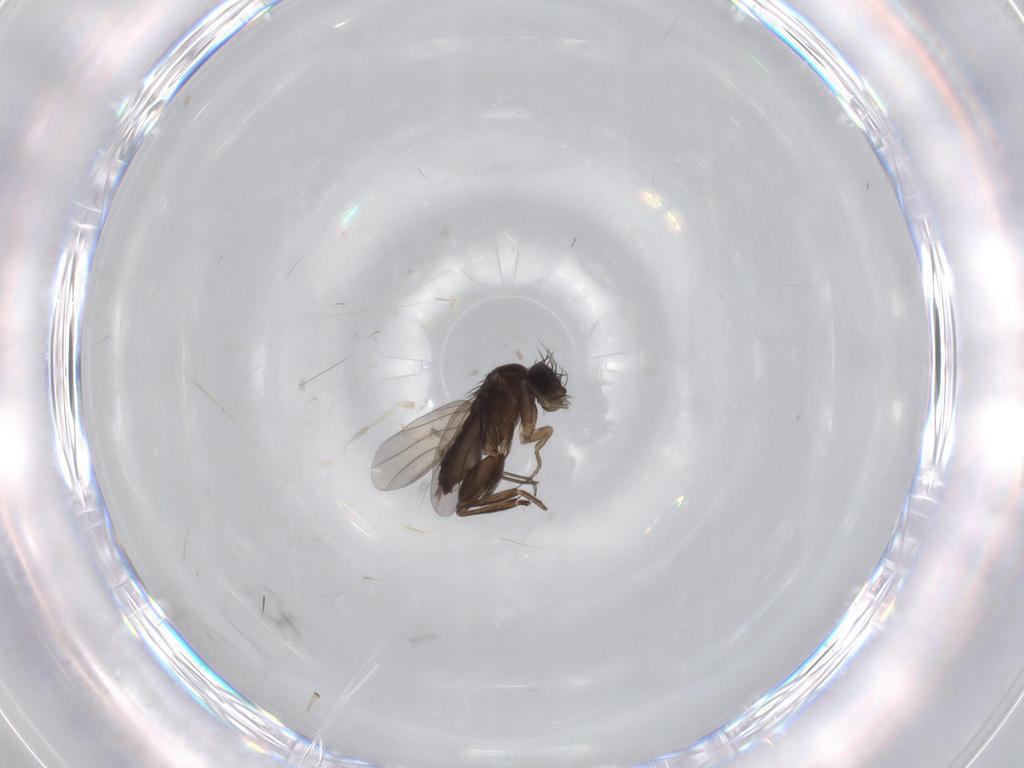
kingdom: Animalia
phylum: Arthropoda
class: Insecta
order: Diptera
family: Phoridae
